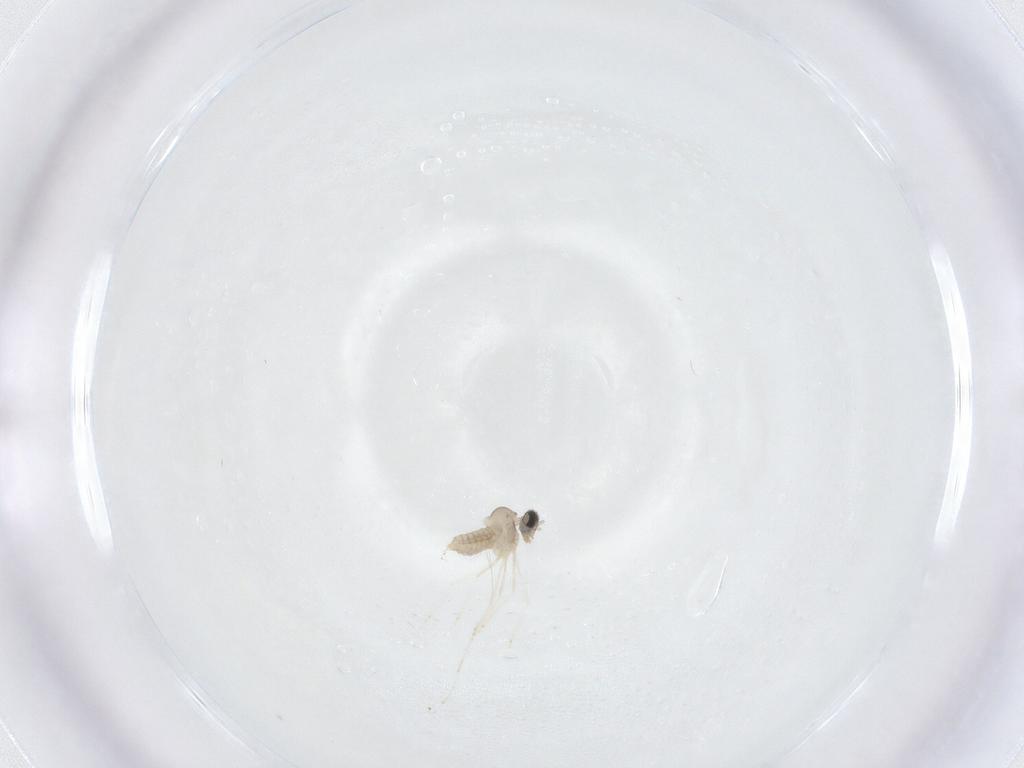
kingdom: Animalia
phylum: Arthropoda
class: Insecta
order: Diptera
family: Cecidomyiidae
